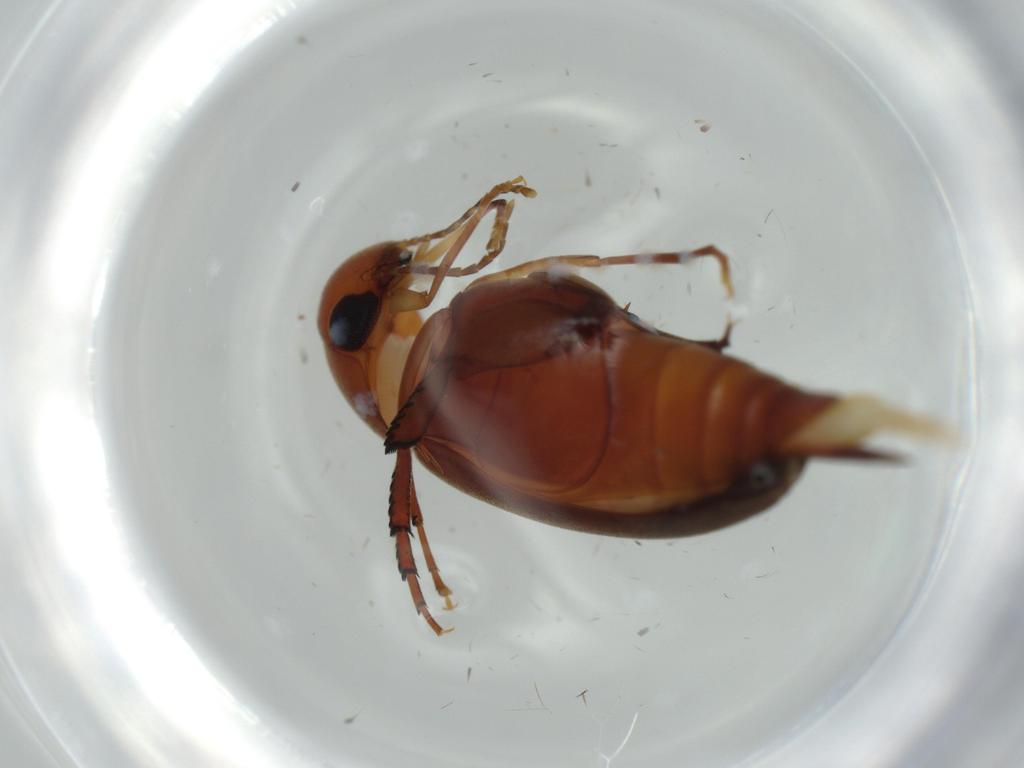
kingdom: Animalia
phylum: Arthropoda
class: Insecta
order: Coleoptera
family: Mordellidae
